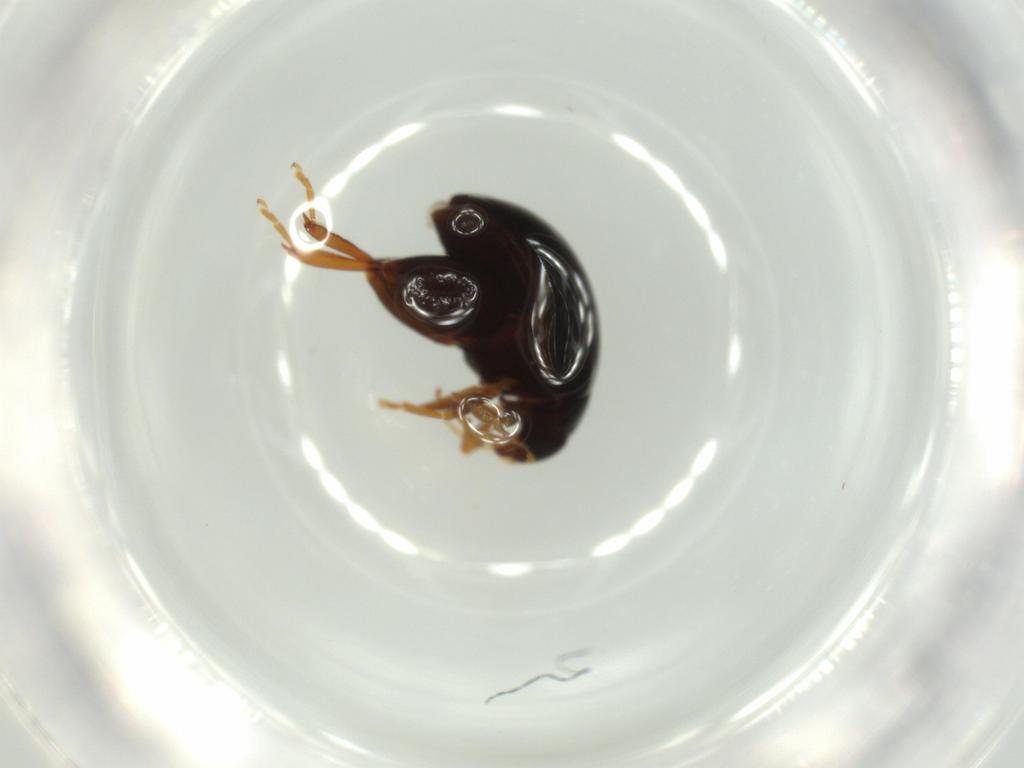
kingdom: Animalia
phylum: Arthropoda
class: Insecta
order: Coleoptera
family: Chrysomelidae
